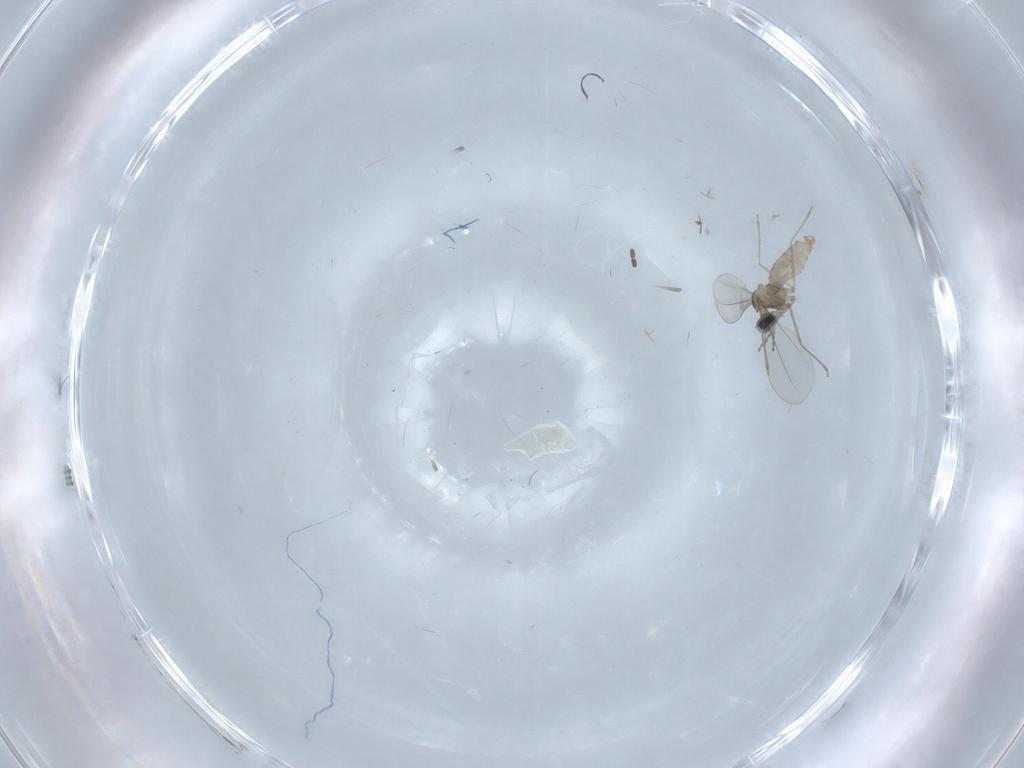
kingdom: Animalia
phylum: Arthropoda
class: Insecta
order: Diptera
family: Cecidomyiidae
